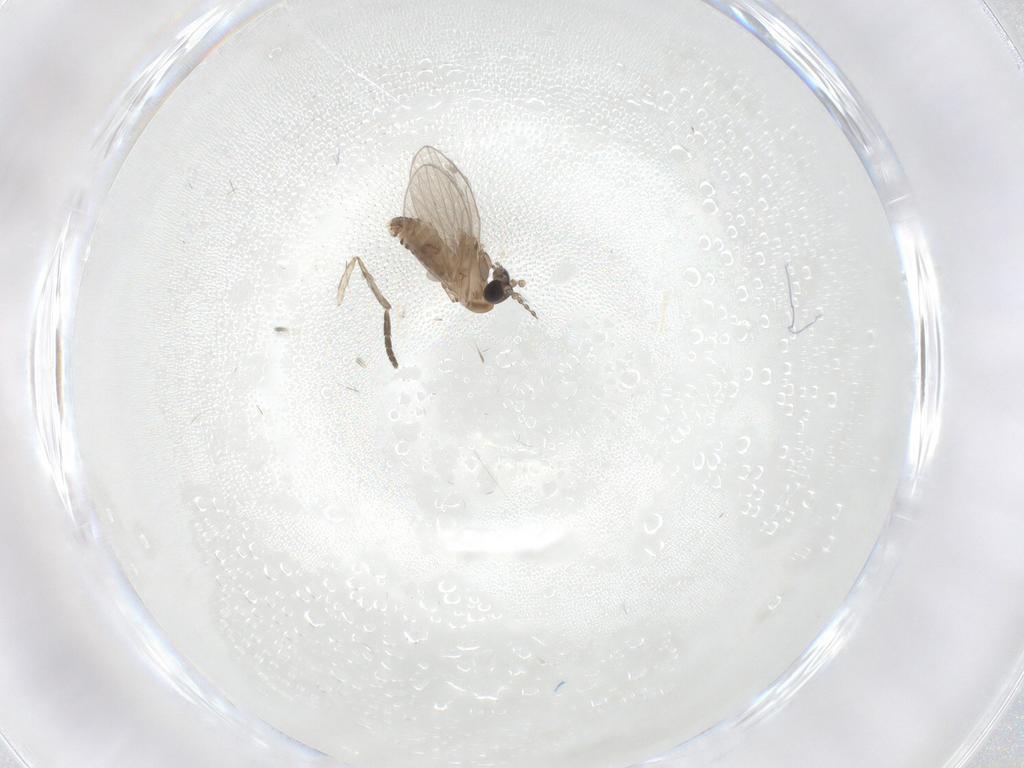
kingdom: Animalia
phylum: Arthropoda
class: Insecta
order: Diptera
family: Psychodidae
